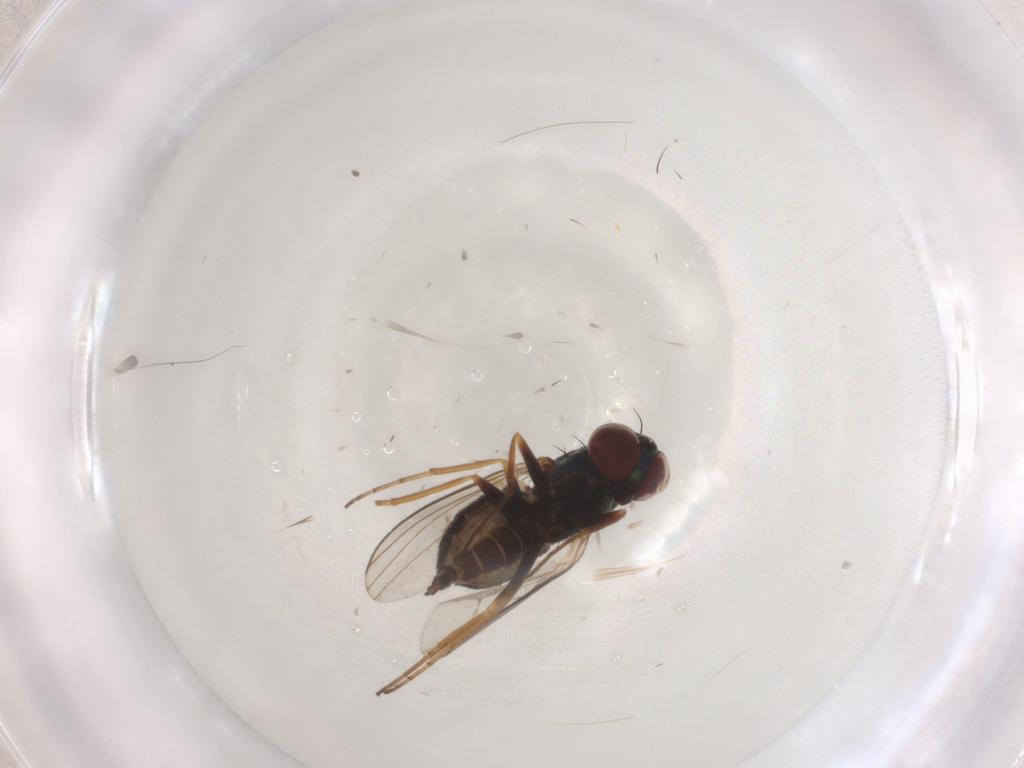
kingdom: Animalia
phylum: Arthropoda
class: Insecta
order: Diptera
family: Dolichopodidae
